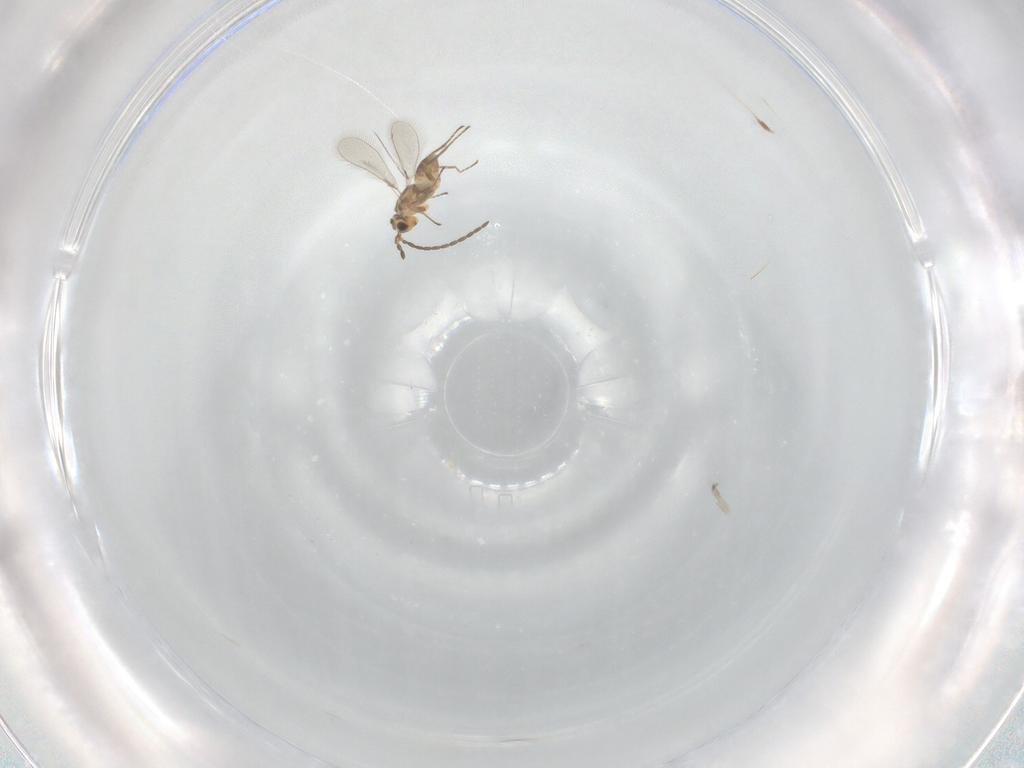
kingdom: Animalia
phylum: Arthropoda
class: Insecta
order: Hymenoptera
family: Mymaridae
